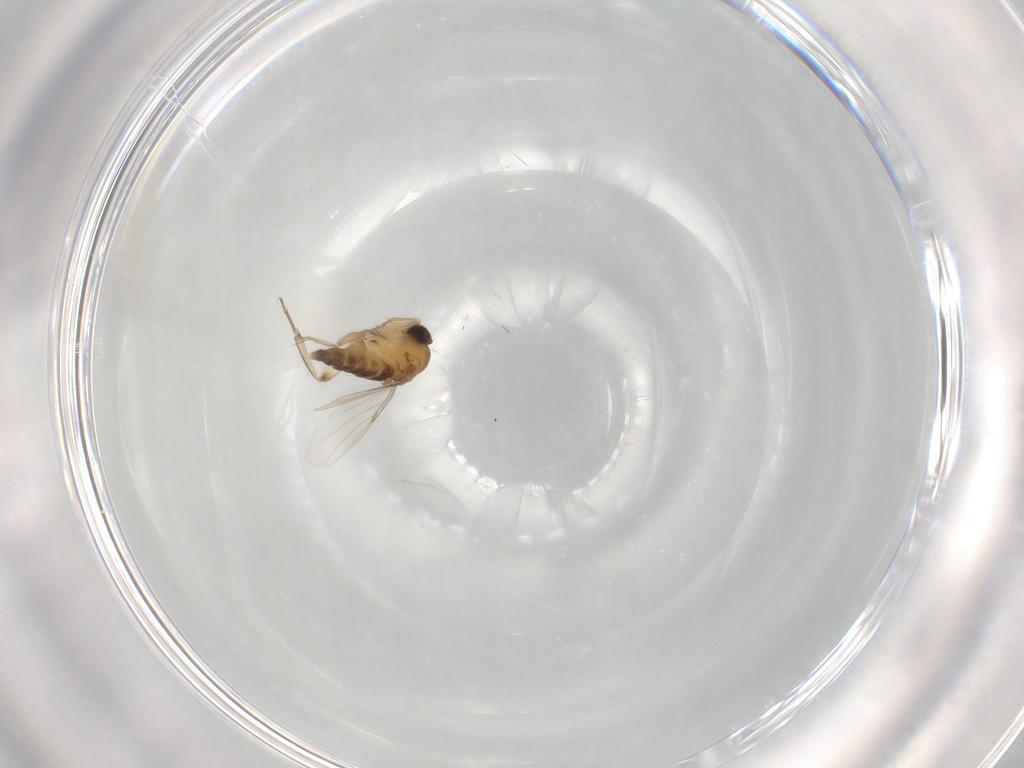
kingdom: Animalia
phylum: Arthropoda
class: Insecta
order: Diptera
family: Phoridae
